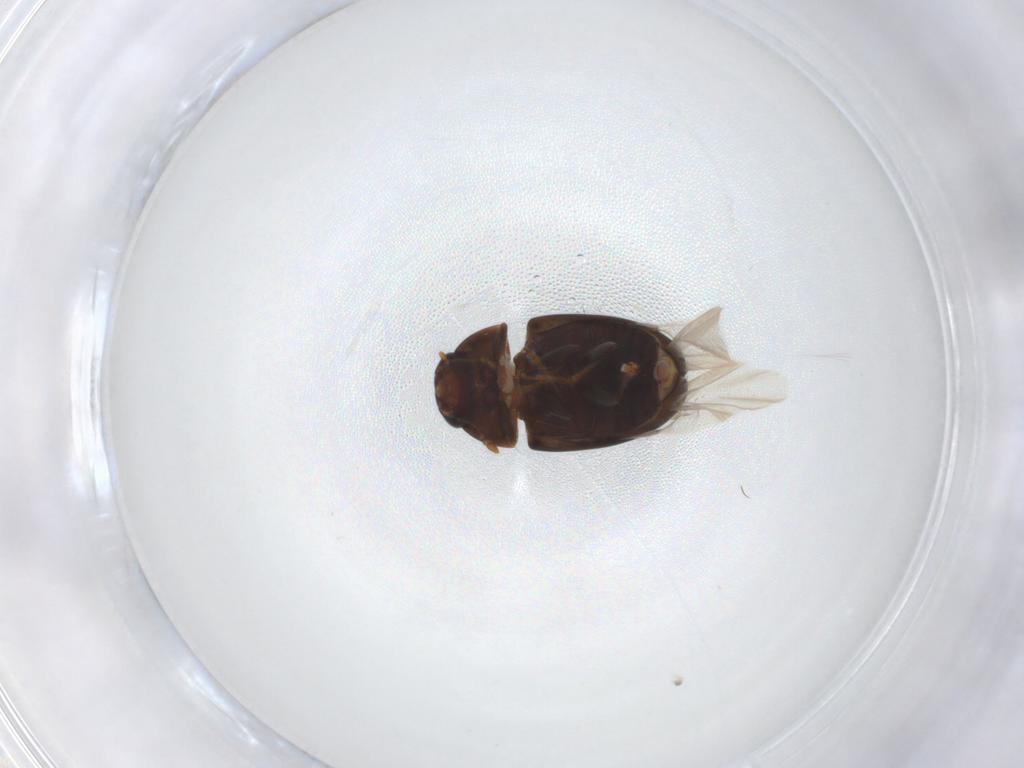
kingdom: Animalia
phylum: Arthropoda
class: Insecta
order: Coleoptera
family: Phalacridae
